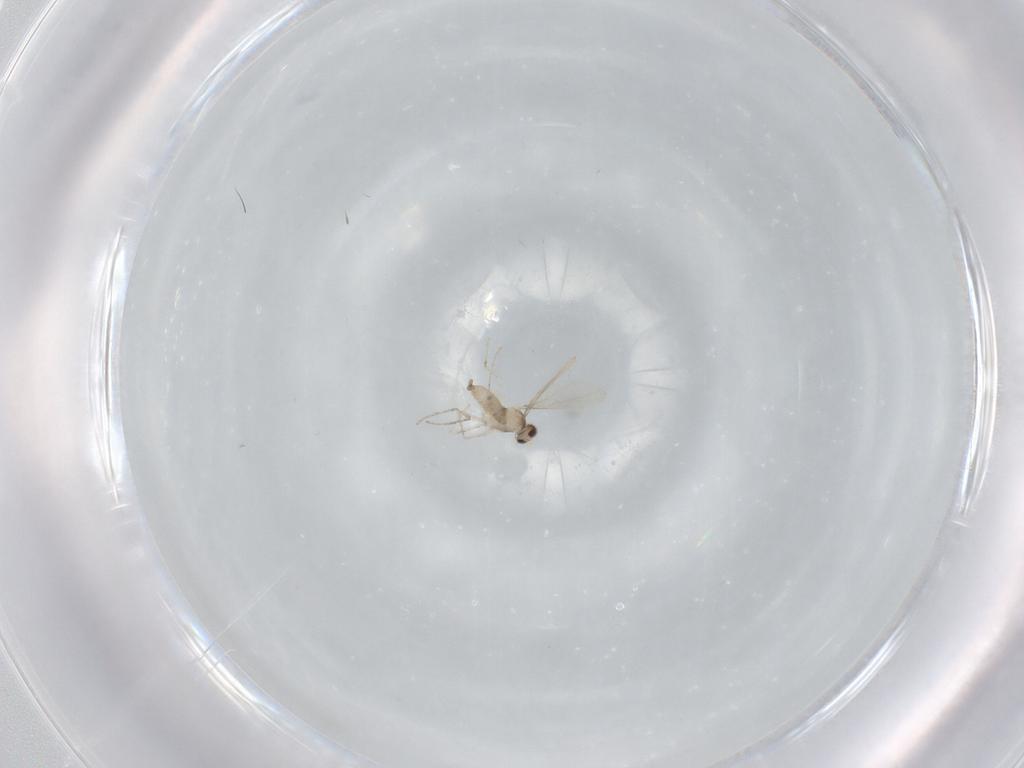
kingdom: Animalia
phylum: Arthropoda
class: Insecta
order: Diptera
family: Cecidomyiidae
